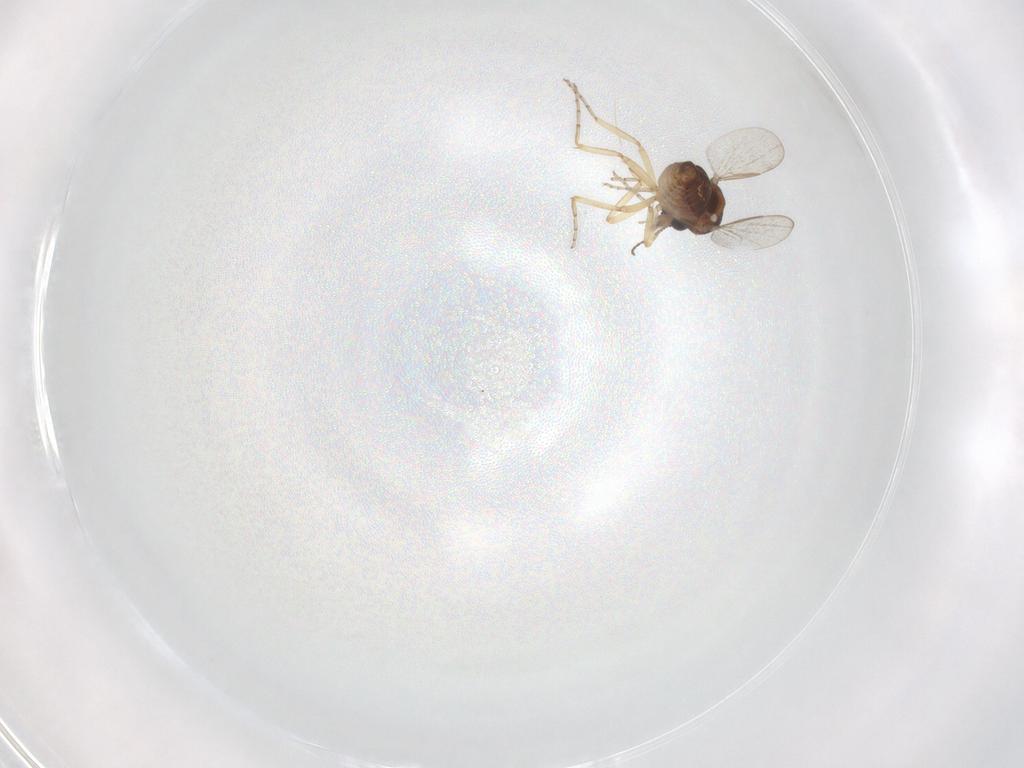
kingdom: Animalia
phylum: Arthropoda
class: Insecta
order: Diptera
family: Ceratopogonidae
